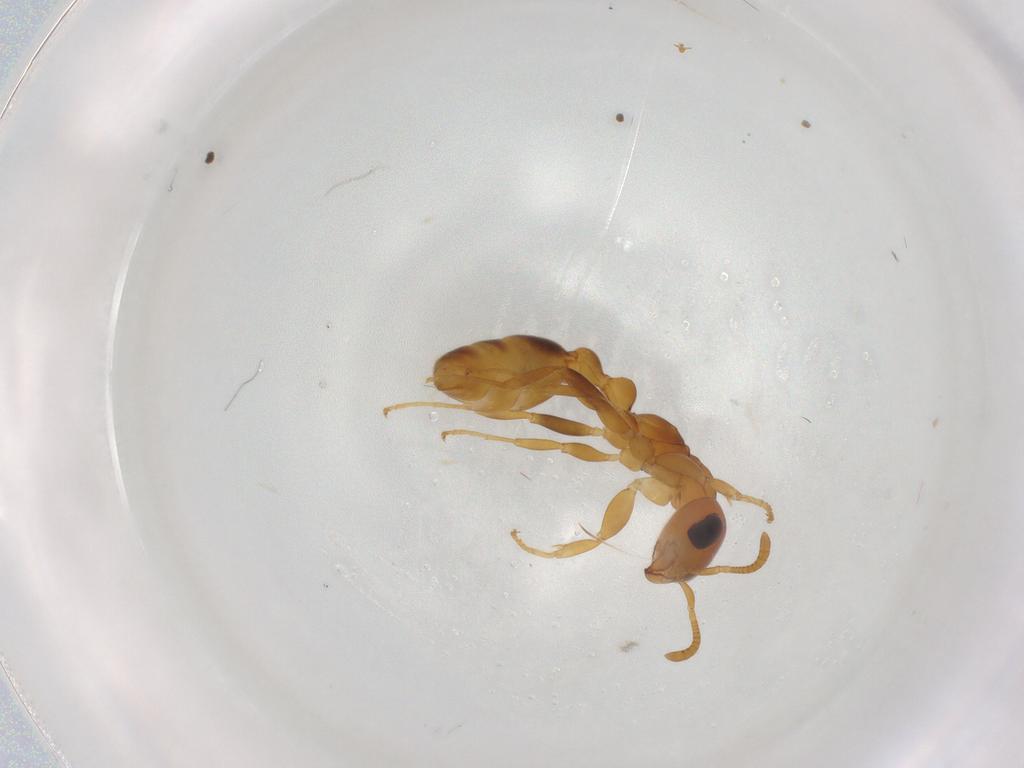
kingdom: Animalia
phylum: Arthropoda
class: Insecta
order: Hymenoptera
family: Formicidae
